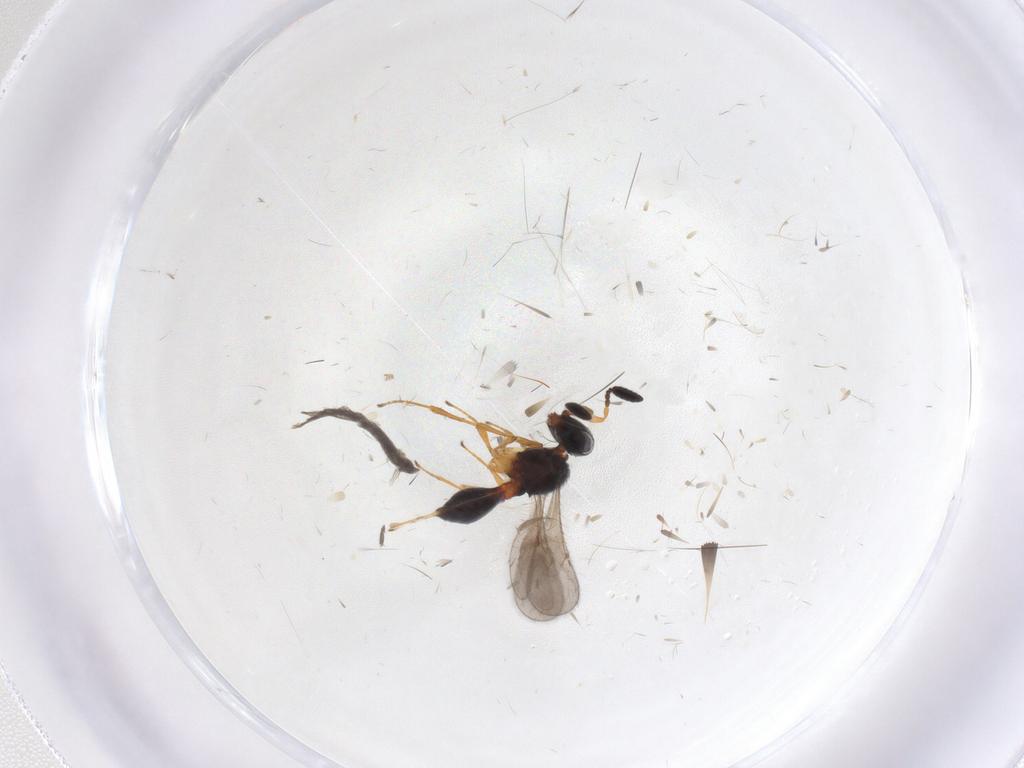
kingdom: Animalia
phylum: Arthropoda
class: Insecta
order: Hymenoptera
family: Scelionidae
